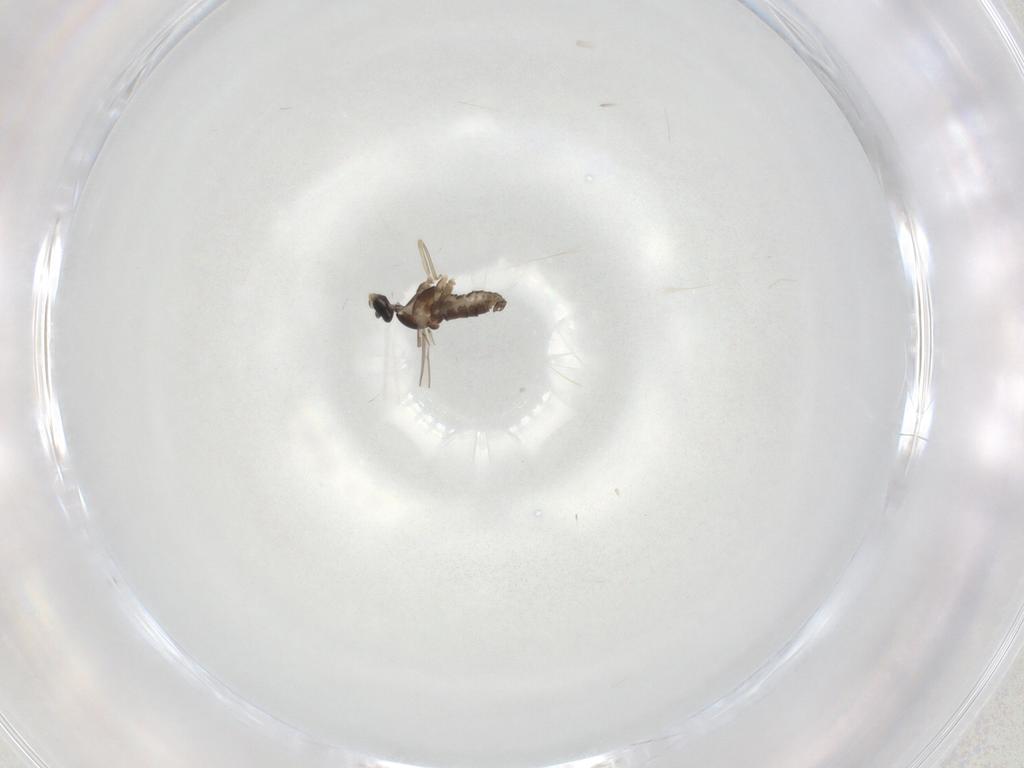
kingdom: Animalia
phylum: Arthropoda
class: Insecta
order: Diptera
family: Cecidomyiidae
